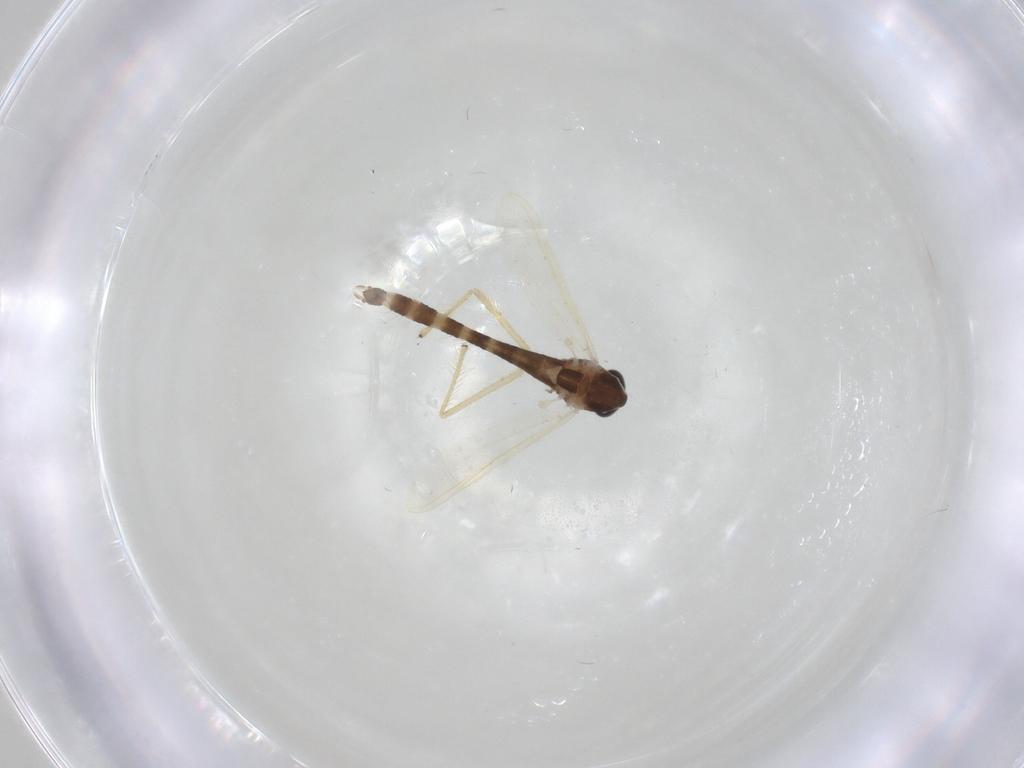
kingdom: Animalia
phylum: Arthropoda
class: Insecta
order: Diptera
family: Chironomidae
